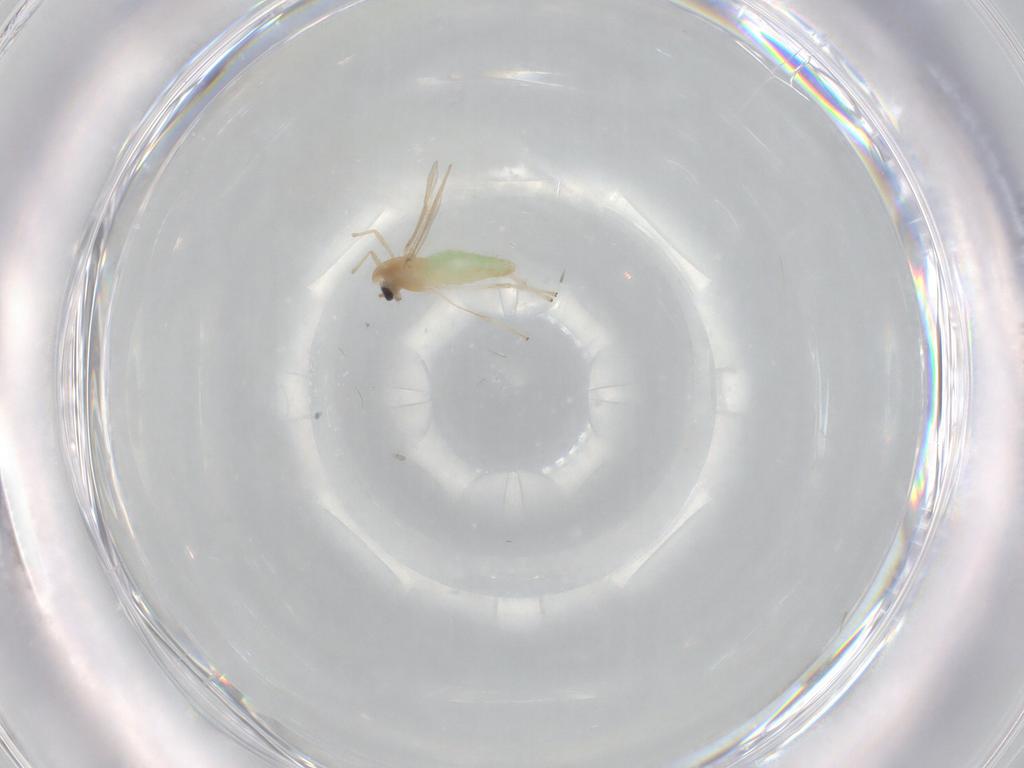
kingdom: Animalia
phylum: Arthropoda
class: Insecta
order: Diptera
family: Chironomidae
